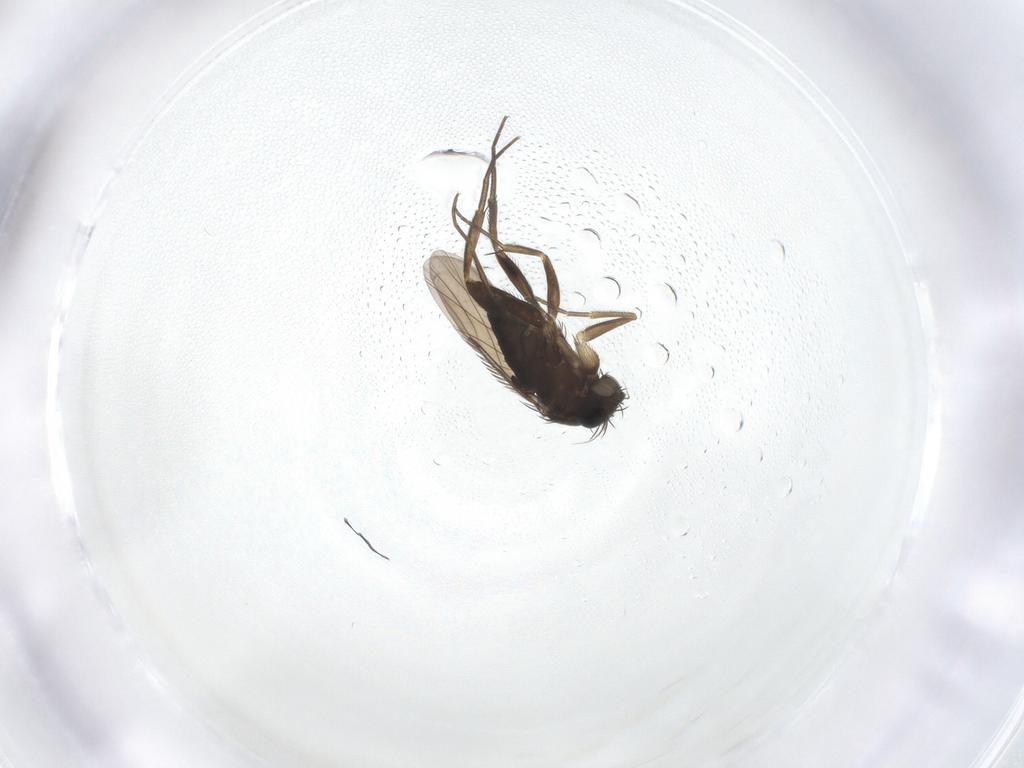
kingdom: Animalia
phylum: Arthropoda
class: Insecta
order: Diptera
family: Phoridae
